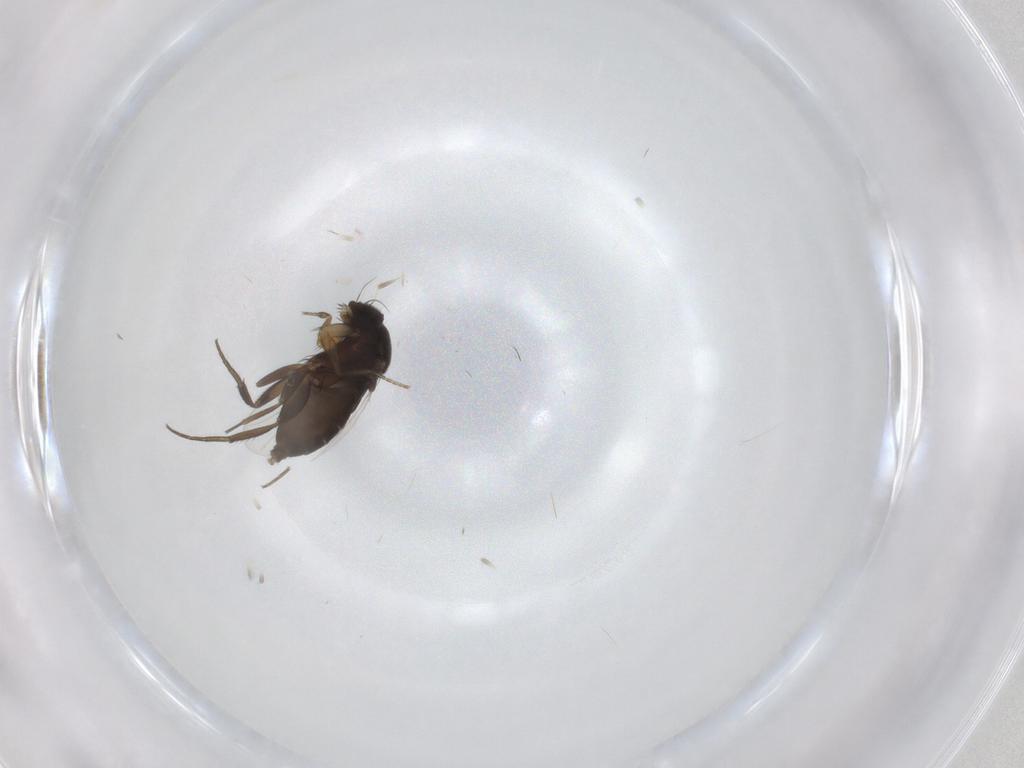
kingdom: Animalia
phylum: Arthropoda
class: Insecta
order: Diptera
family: Phoridae
